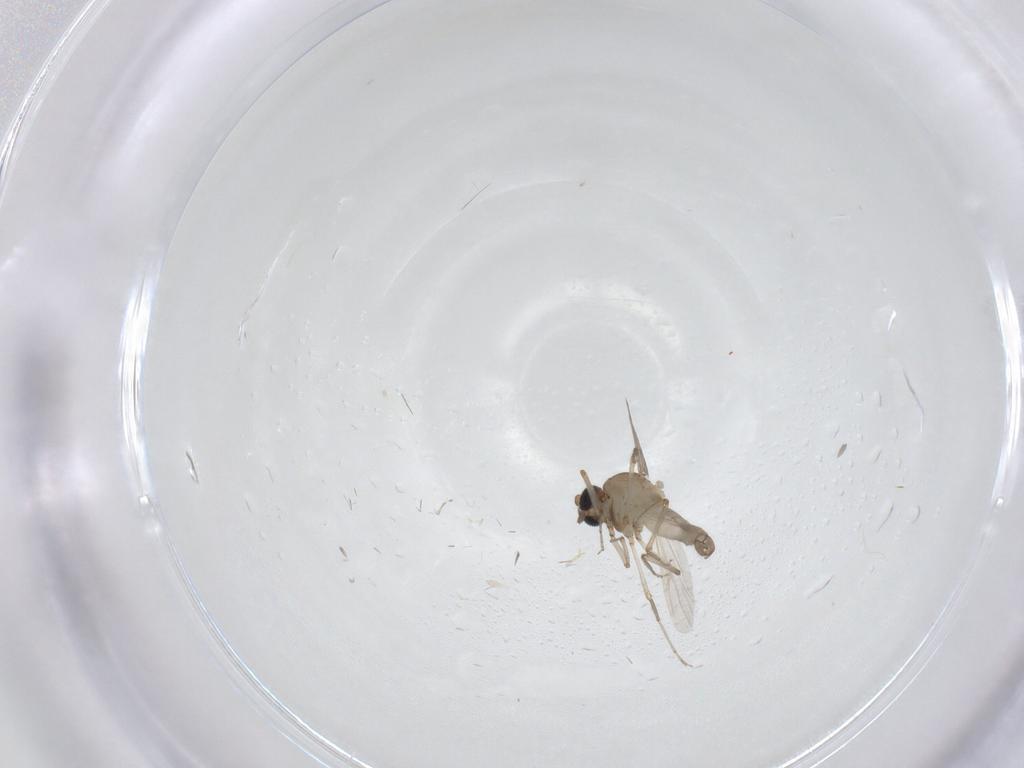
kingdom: Animalia
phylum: Arthropoda
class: Insecta
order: Diptera
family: Ceratopogonidae
